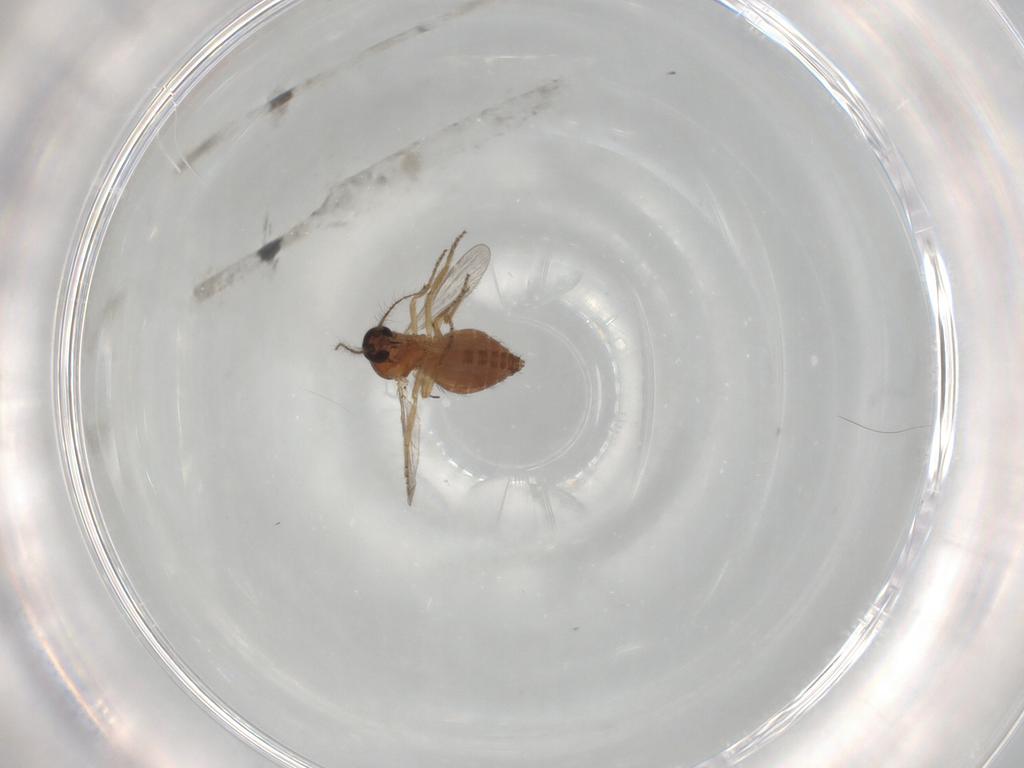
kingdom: Animalia
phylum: Arthropoda
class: Insecta
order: Diptera
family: Ceratopogonidae
